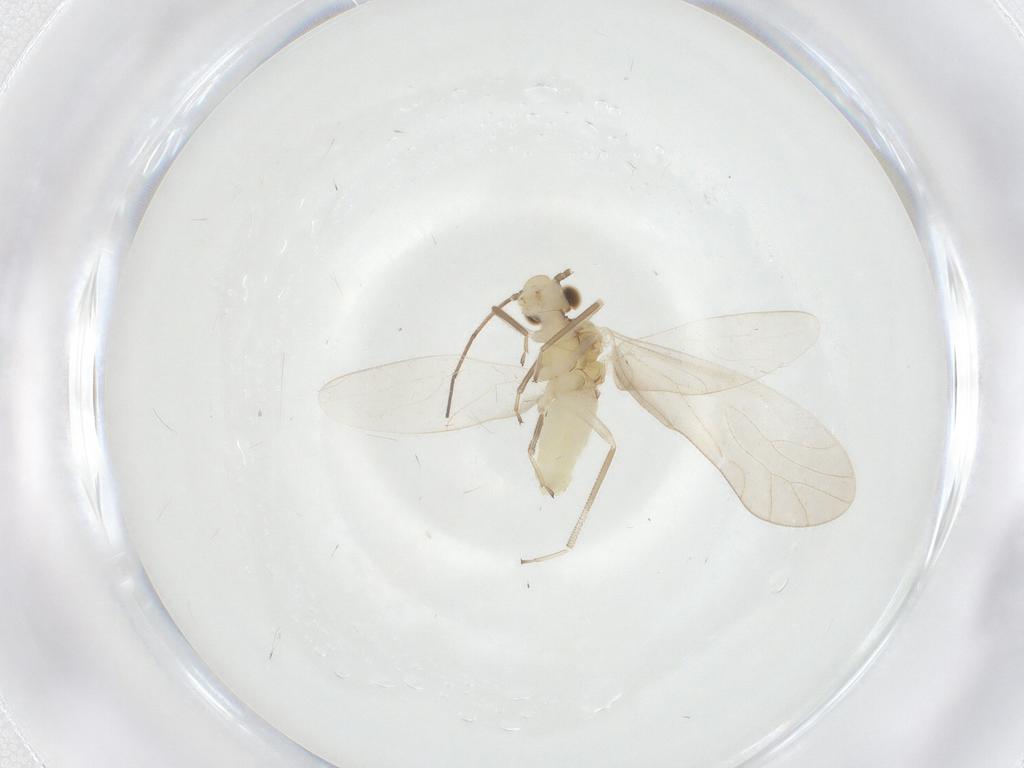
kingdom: Animalia
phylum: Arthropoda
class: Insecta
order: Psocodea
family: Caeciliusidae
